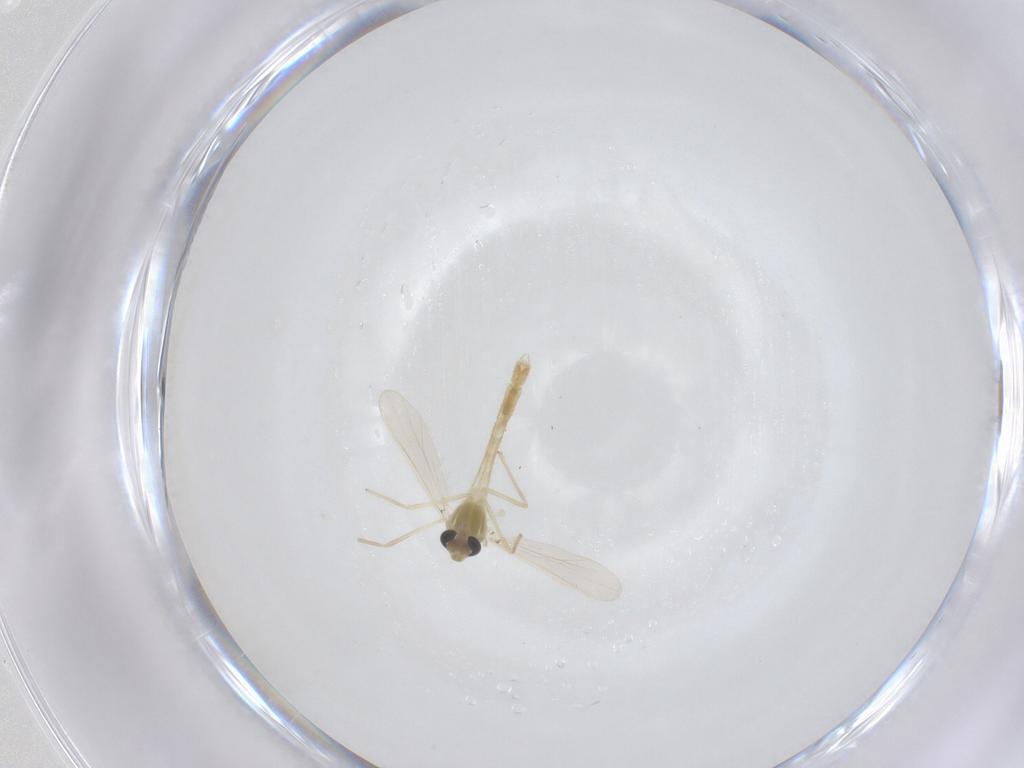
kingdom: Animalia
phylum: Arthropoda
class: Insecta
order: Diptera
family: Chironomidae
